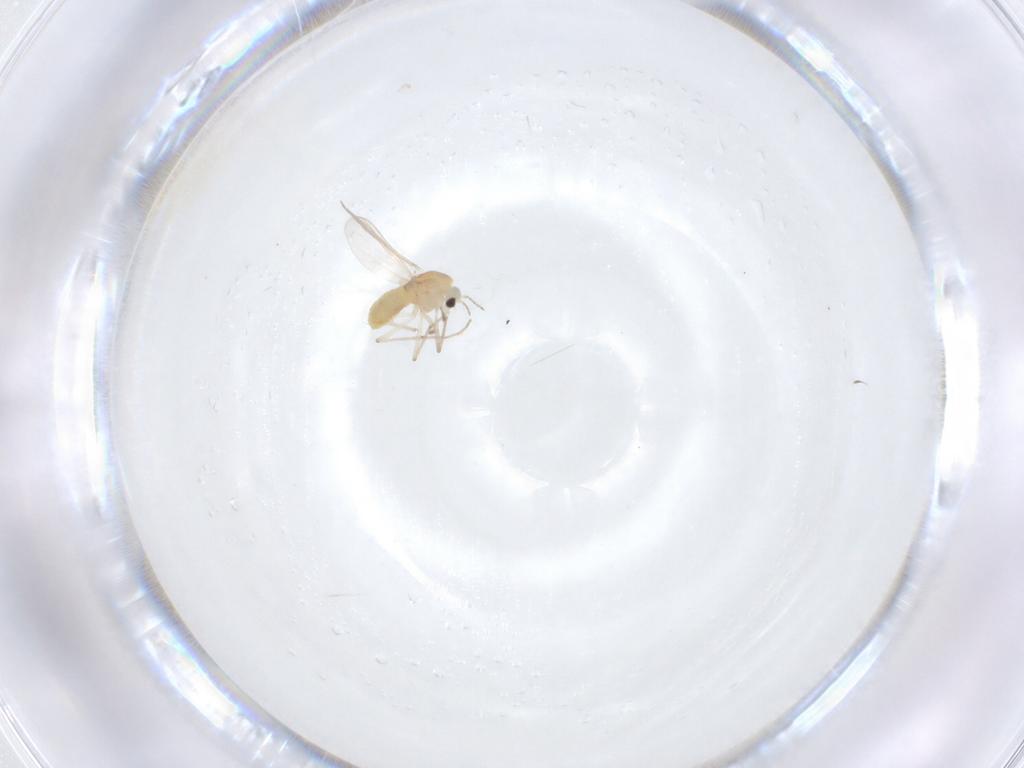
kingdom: Animalia
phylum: Arthropoda
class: Insecta
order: Diptera
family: Chironomidae
